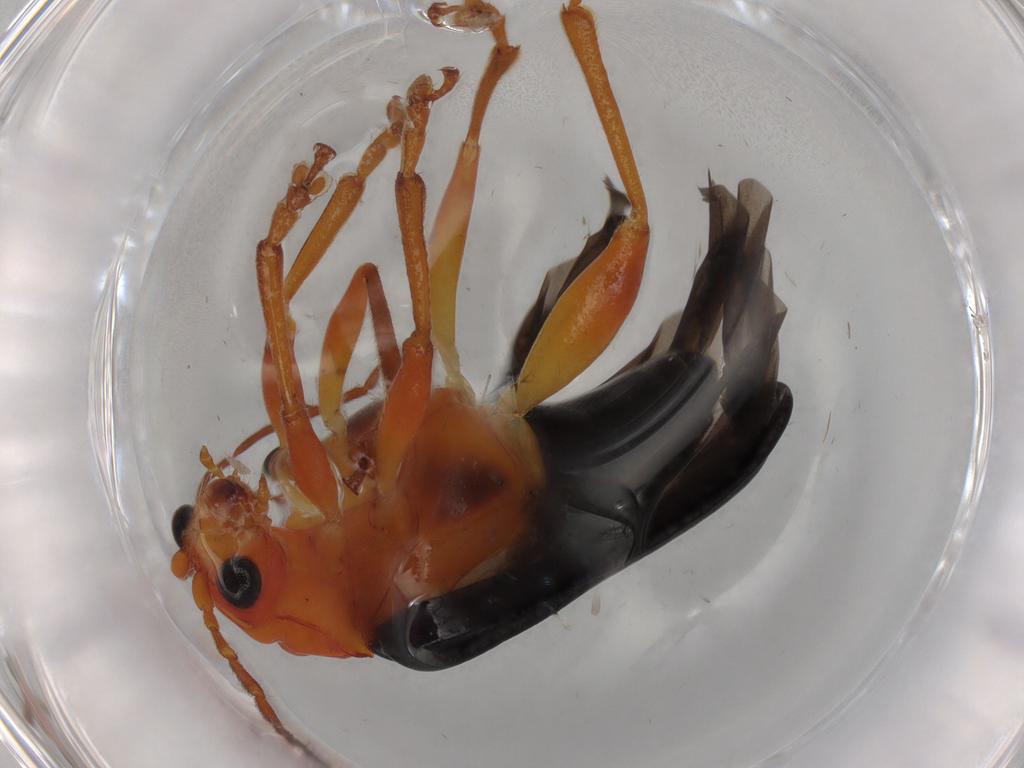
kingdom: Animalia
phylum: Arthropoda
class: Insecta
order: Coleoptera
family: Chrysomelidae
